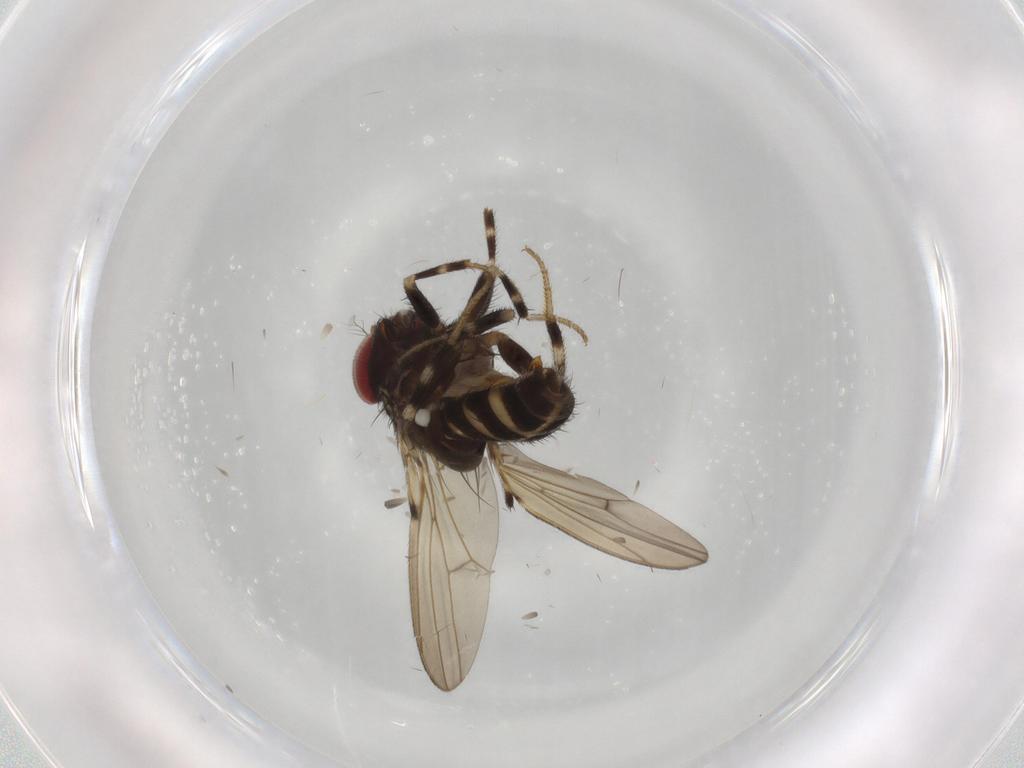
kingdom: Animalia
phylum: Arthropoda
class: Insecta
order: Diptera
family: Drosophilidae
